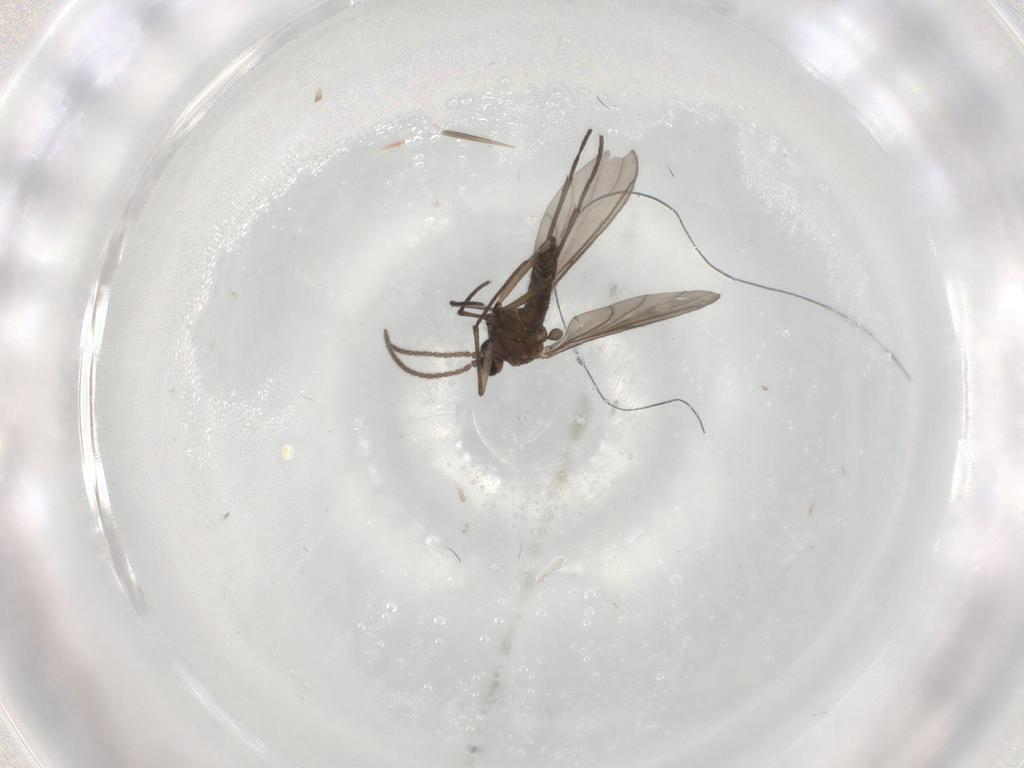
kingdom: Animalia
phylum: Arthropoda
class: Insecta
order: Diptera
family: Sciaridae
